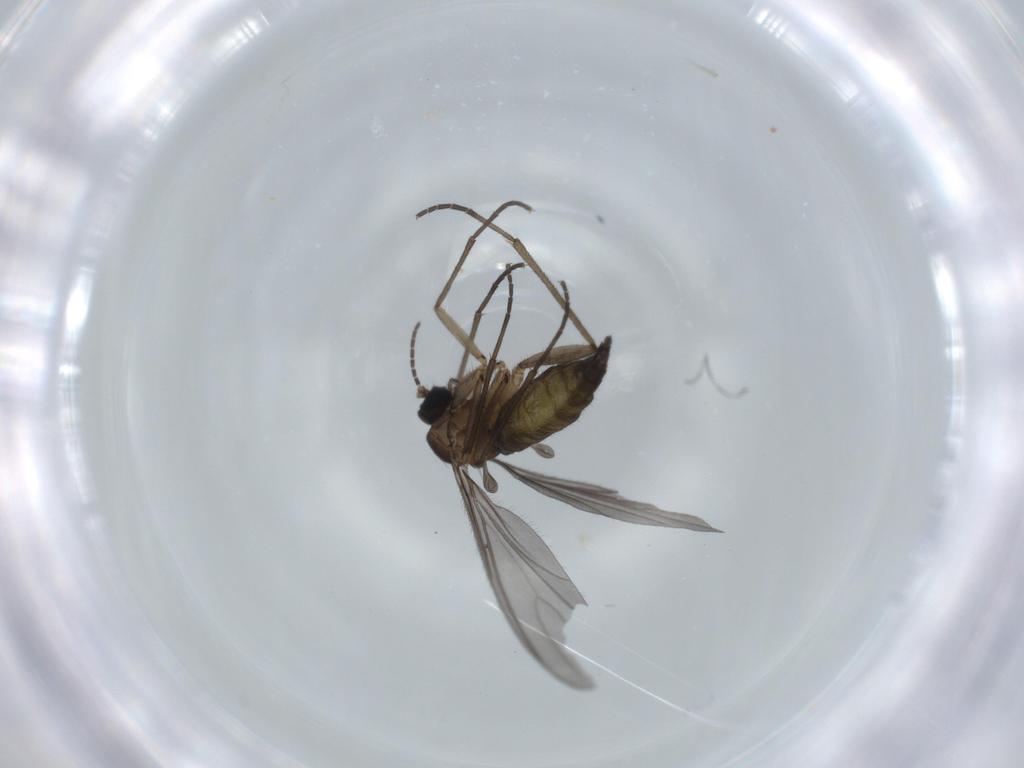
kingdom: Animalia
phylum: Arthropoda
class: Insecta
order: Diptera
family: Sciaridae
